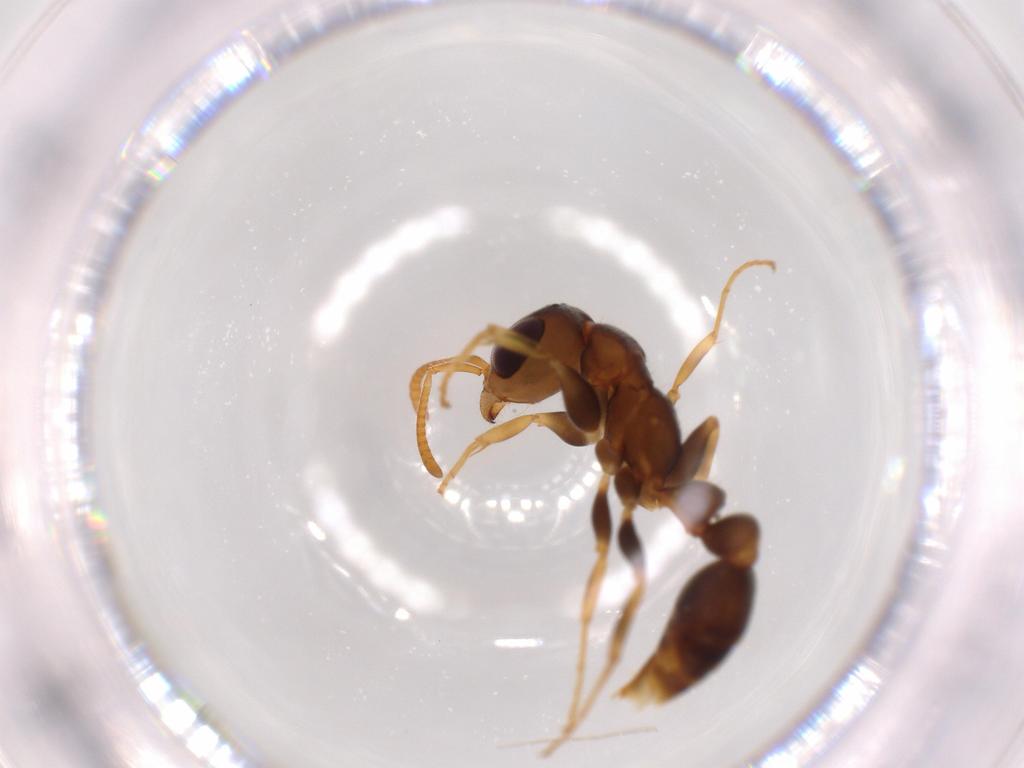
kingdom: Animalia
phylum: Arthropoda
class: Insecta
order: Hymenoptera
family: Formicidae
